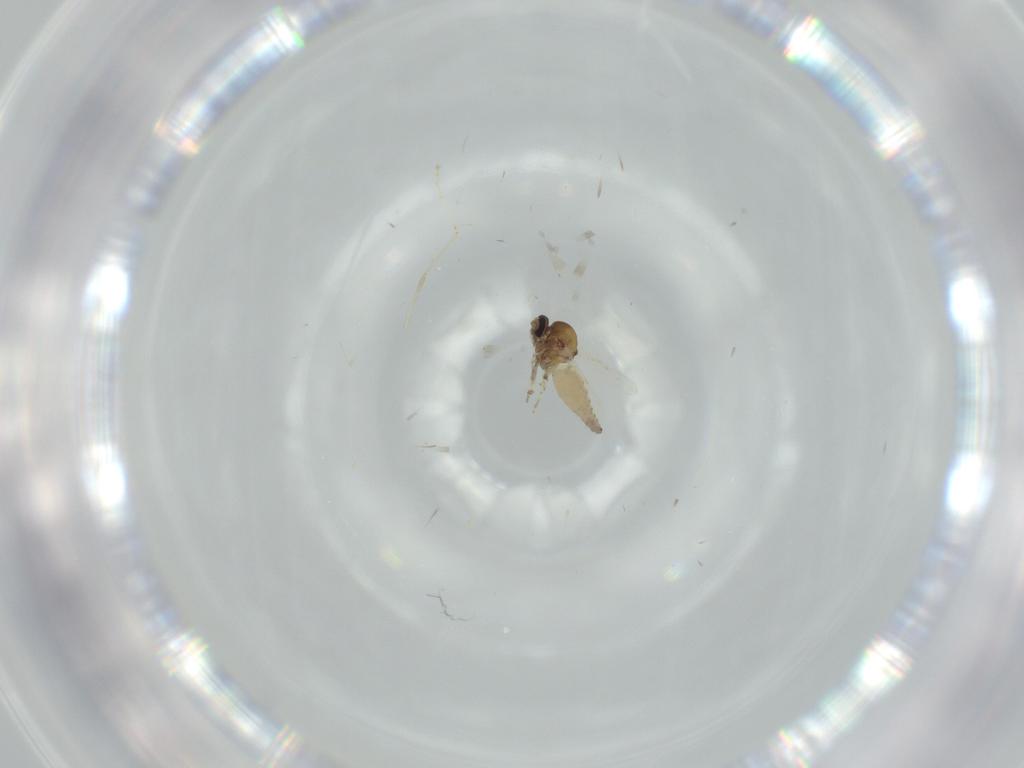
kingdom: Animalia
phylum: Arthropoda
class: Insecta
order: Diptera
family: Ceratopogonidae
